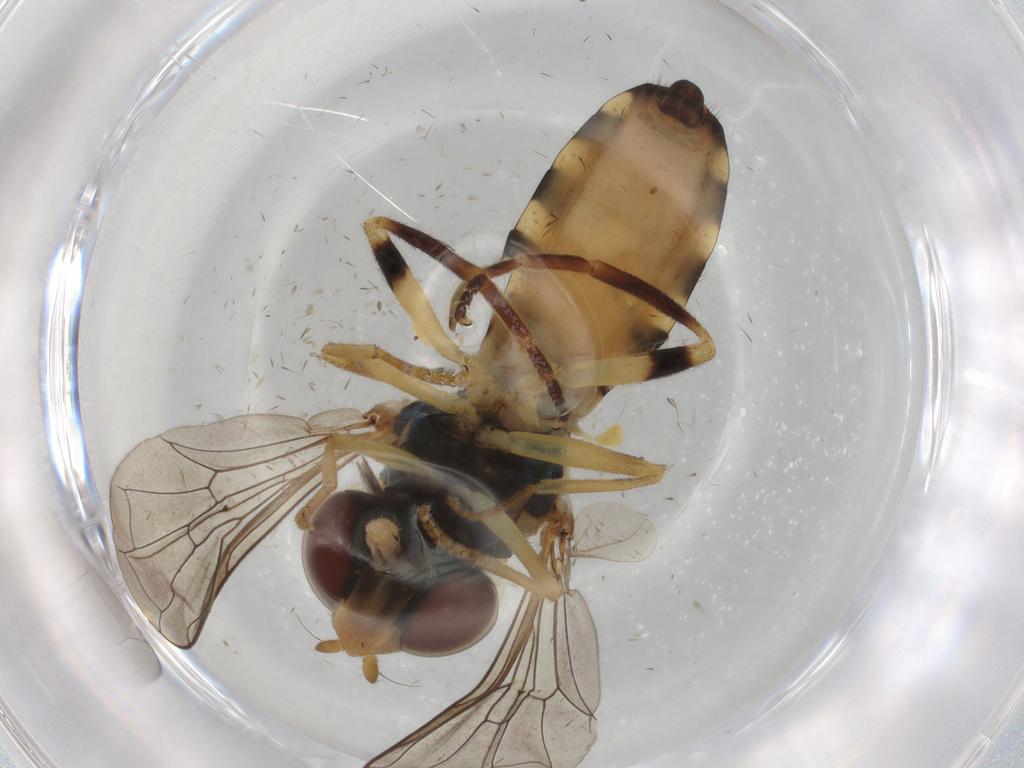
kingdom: Animalia
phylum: Arthropoda
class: Insecta
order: Diptera
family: Syrphidae
